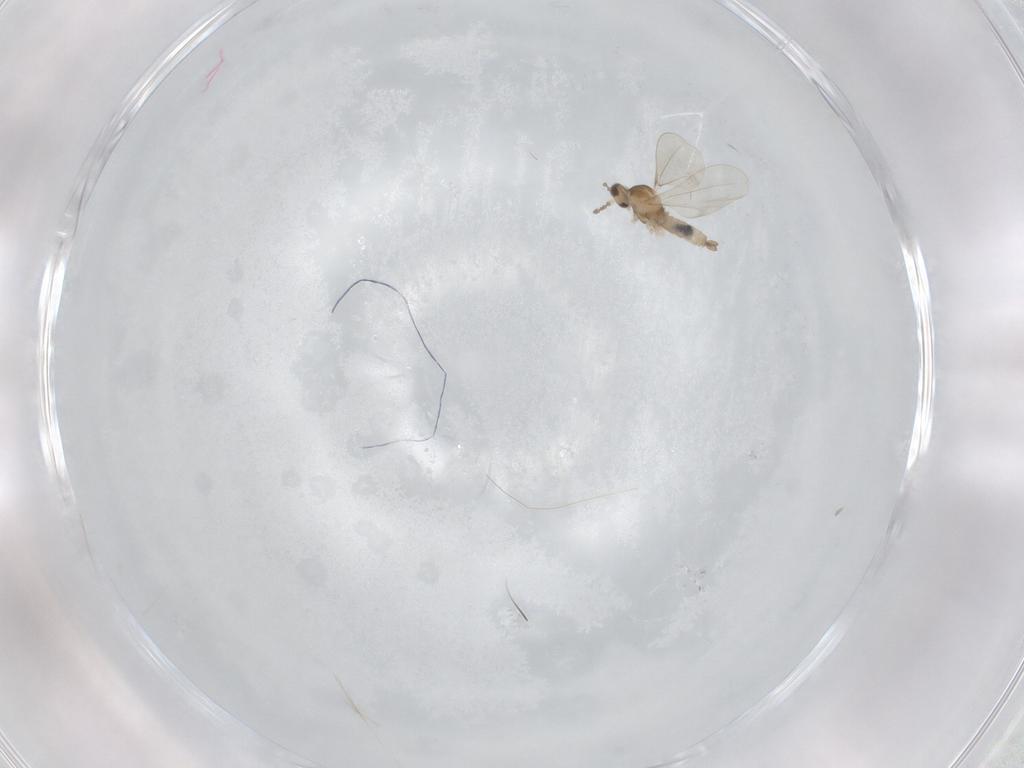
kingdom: Animalia
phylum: Arthropoda
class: Insecta
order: Diptera
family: Cecidomyiidae
